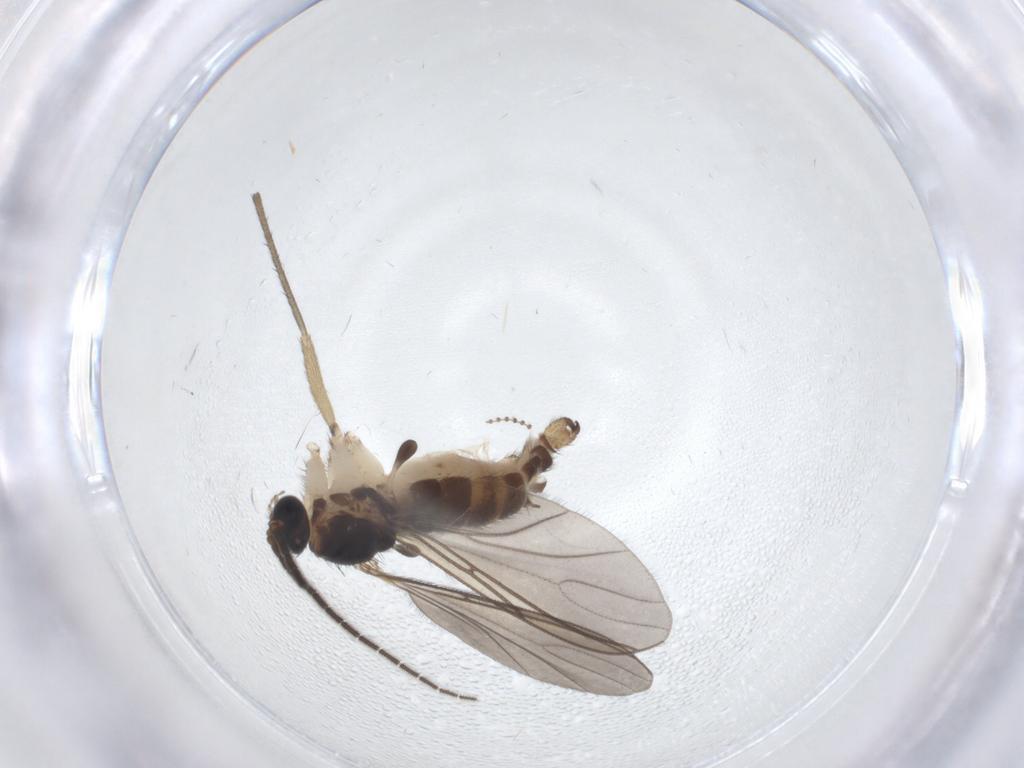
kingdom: Animalia
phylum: Arthropoda
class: Insecta
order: Diptera
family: Sciaridae
